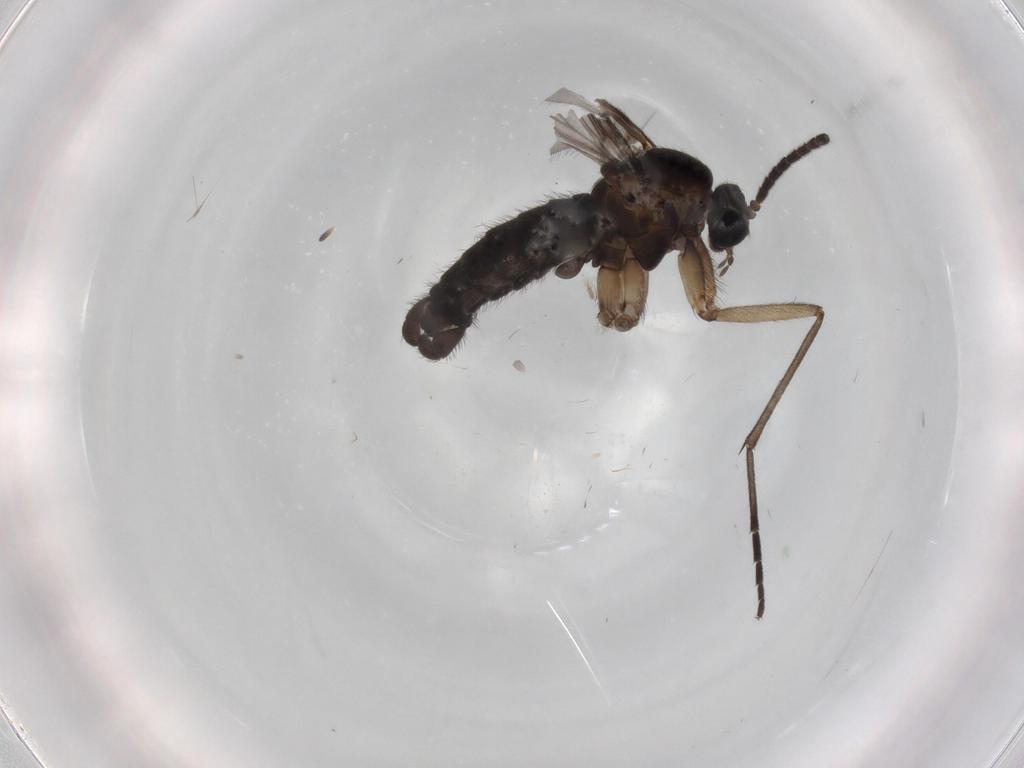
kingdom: Animalia
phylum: Arthropoda
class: Insecta
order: Diptera
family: Sciaridae
